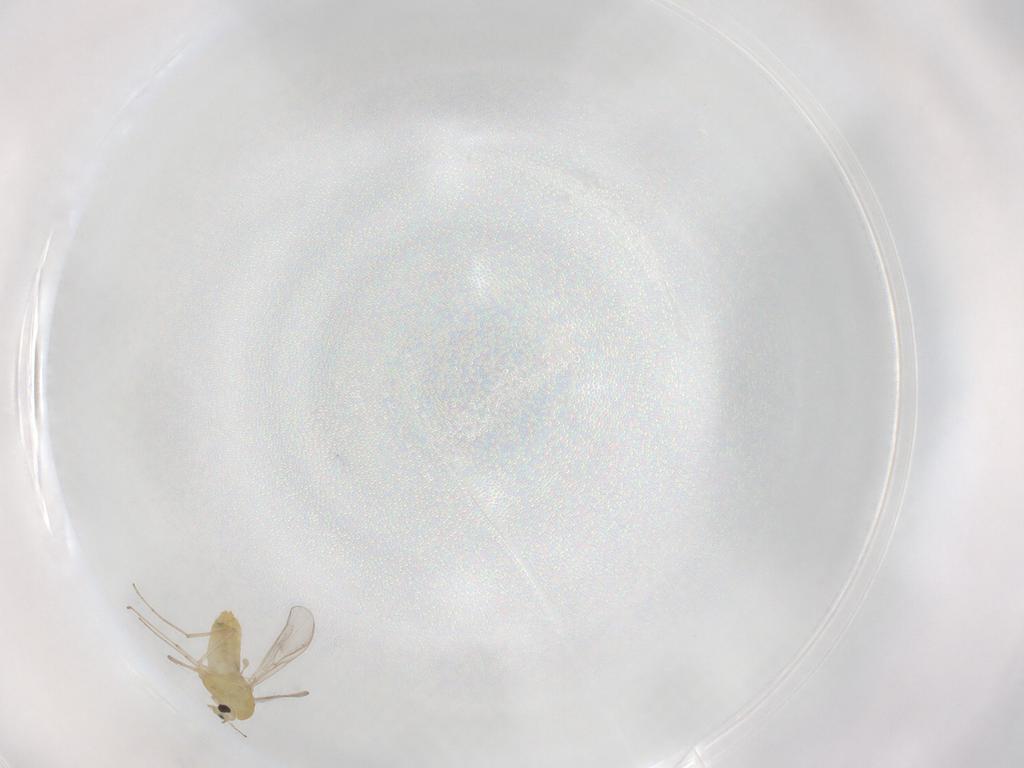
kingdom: Animalia
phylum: Arthropoda
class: Insecta
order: Diptera
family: Chironomidae
